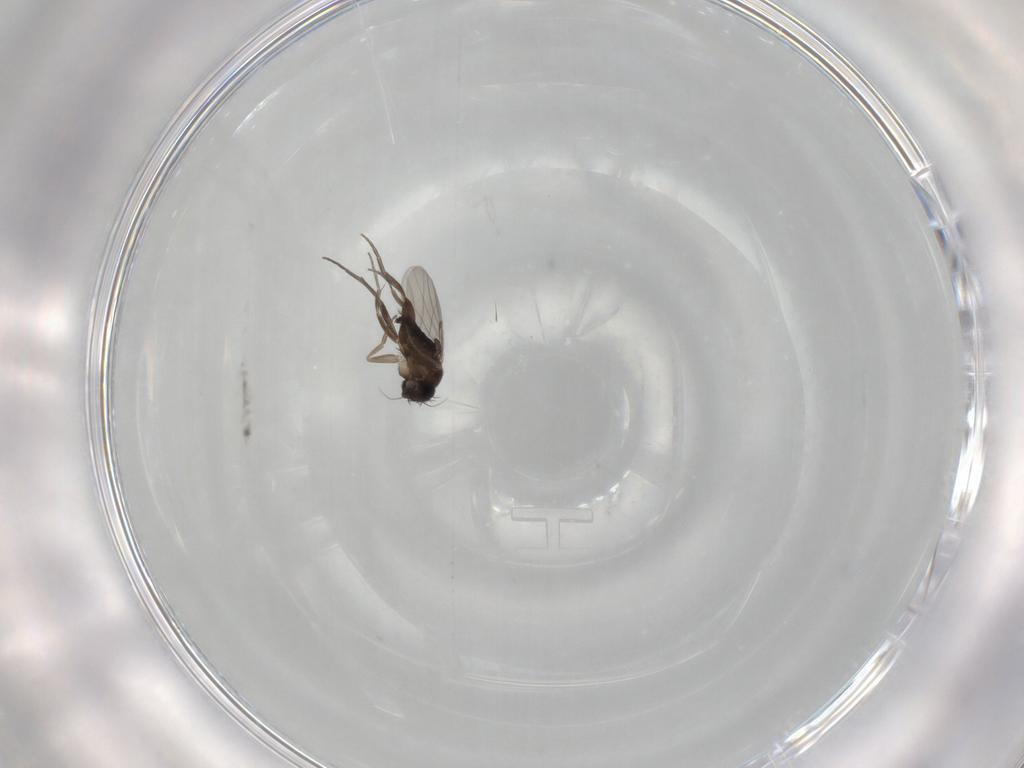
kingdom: Animalia
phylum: Arthropoda
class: Insecta
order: Diptera
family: Phoridae
